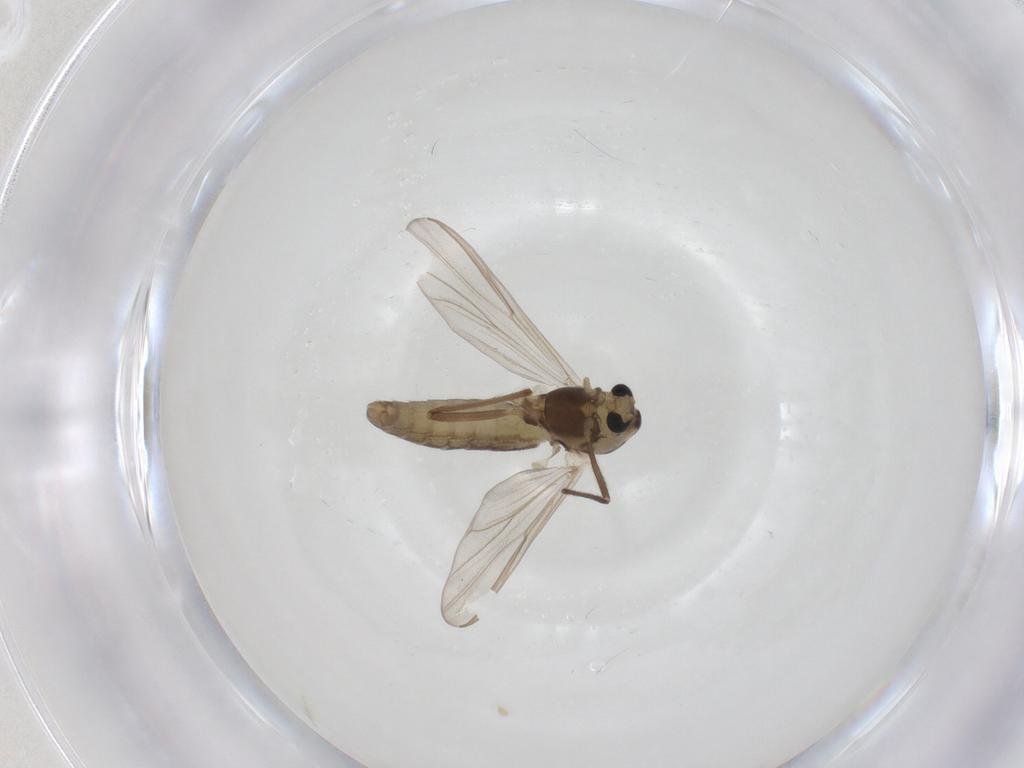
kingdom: Animalia
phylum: Arthropoda
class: Insecta
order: Diptera
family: Chironomidae
